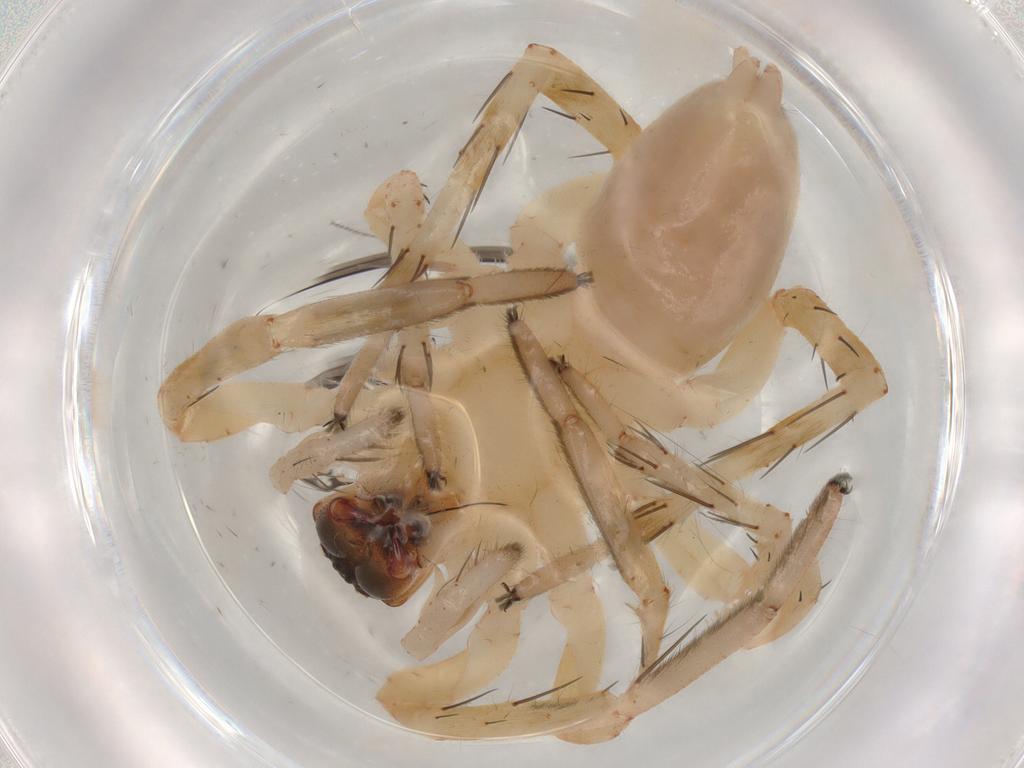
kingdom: Animalia
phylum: Arthropoda
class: Arachnida
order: Araneae
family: Anyphaenidae
